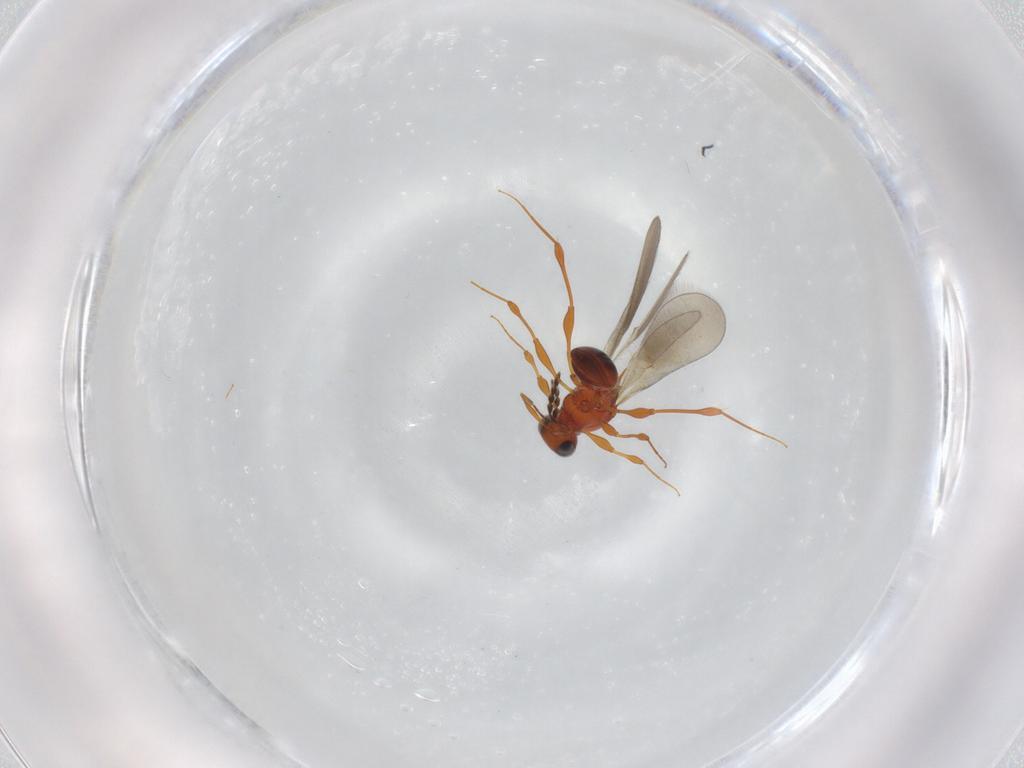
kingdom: Animalia
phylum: Arthropoda
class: Insecta
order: Hymenoptera
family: Platygastridae
